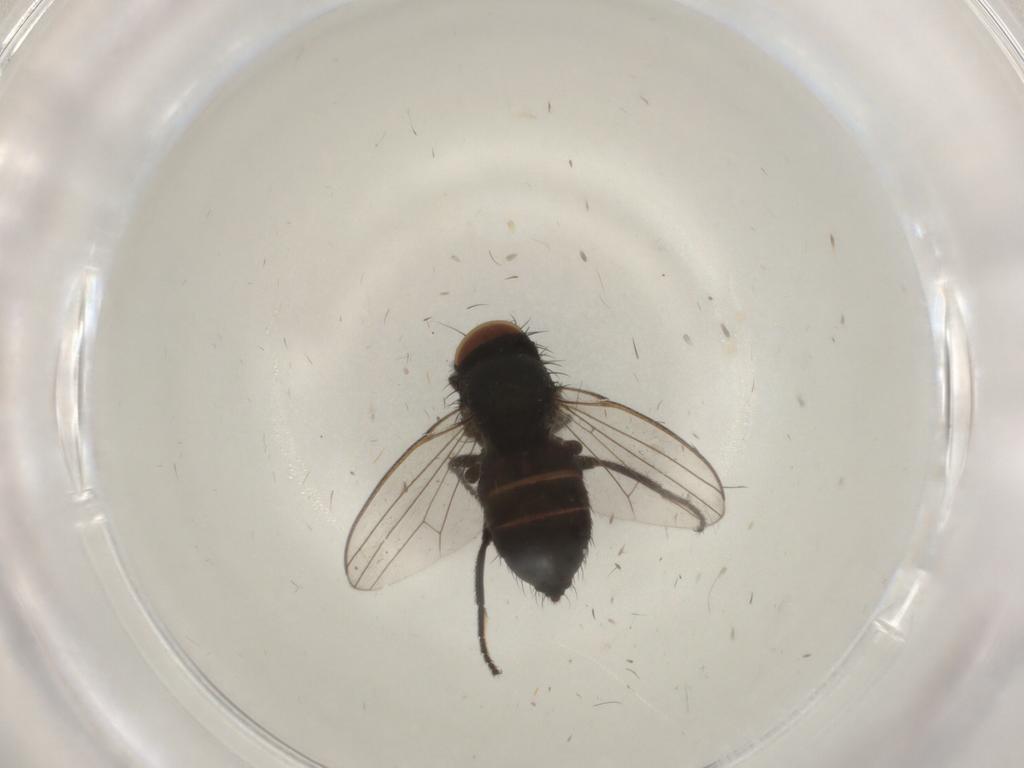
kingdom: Animalia
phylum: Arthropoda
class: Insecta
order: Diptera
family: Milichiidae
